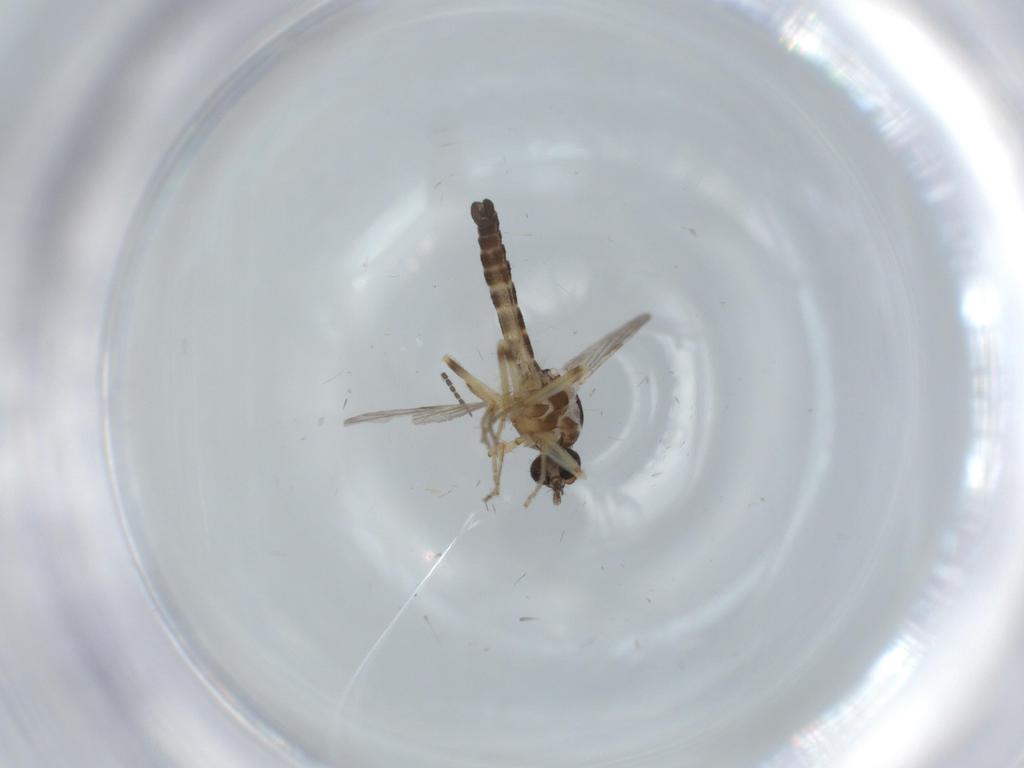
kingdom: Animalia
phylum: Arthropoda
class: Insecta
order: Diptera
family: Ceratopogonidae
